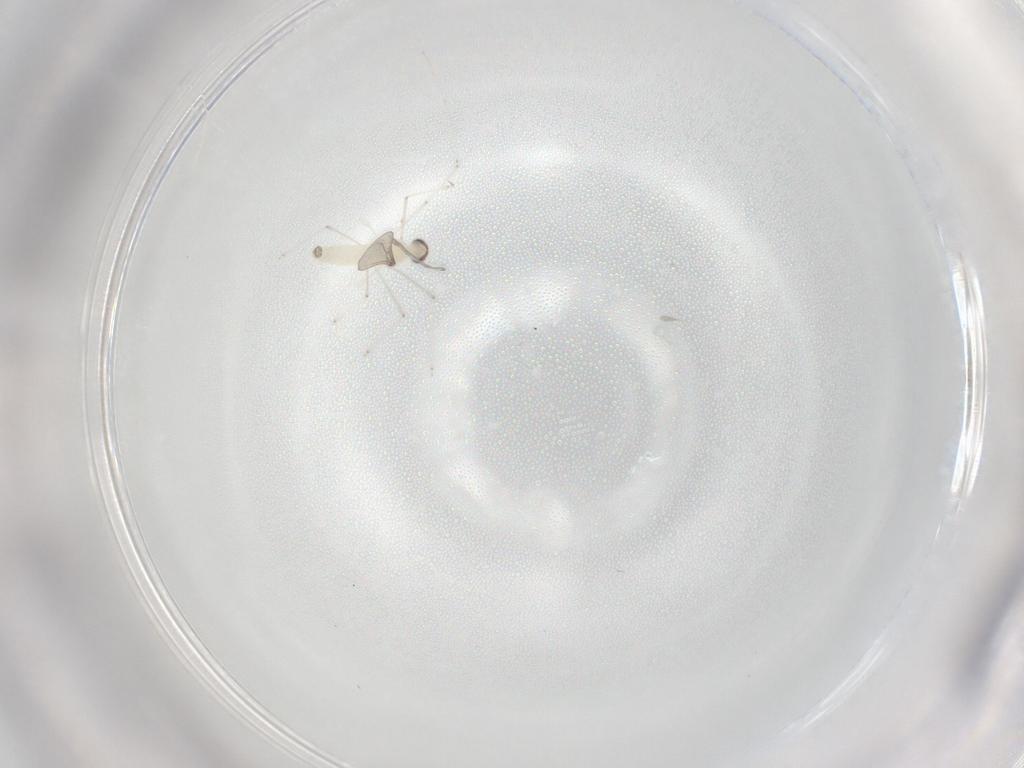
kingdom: Animalia
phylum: Arthropoda
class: Insecta
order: Diptera
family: Cecidomyiidae
